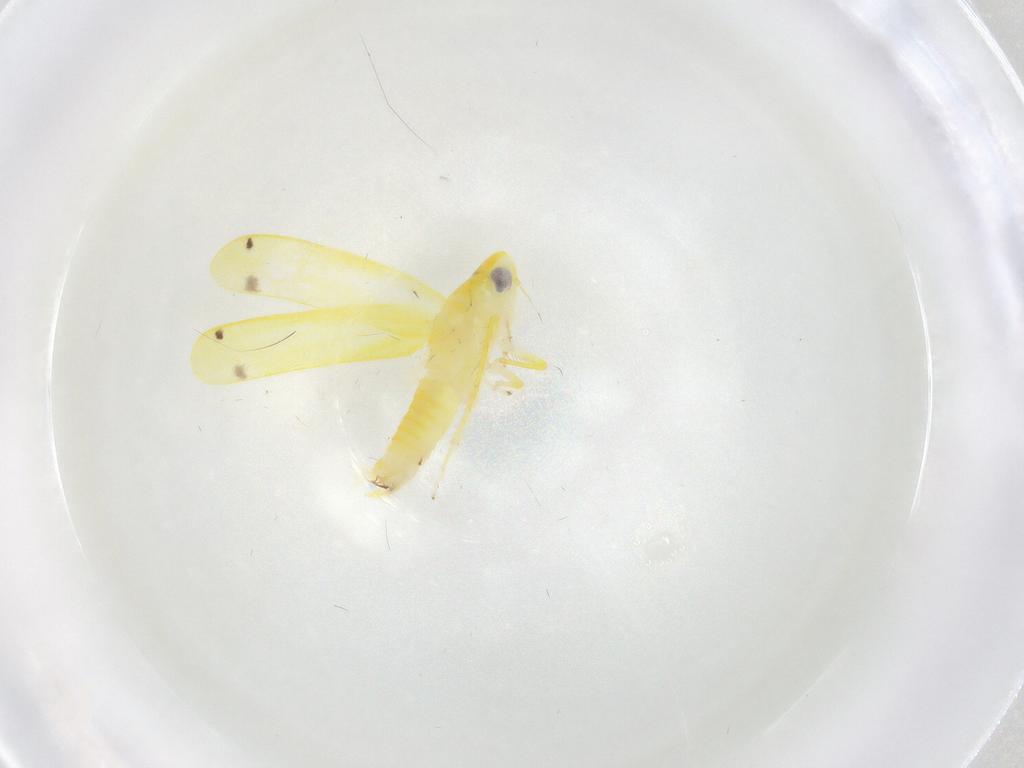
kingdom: Animalia
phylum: Arthropoda
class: Insecta
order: Hemiptera
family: Cicadellidae
